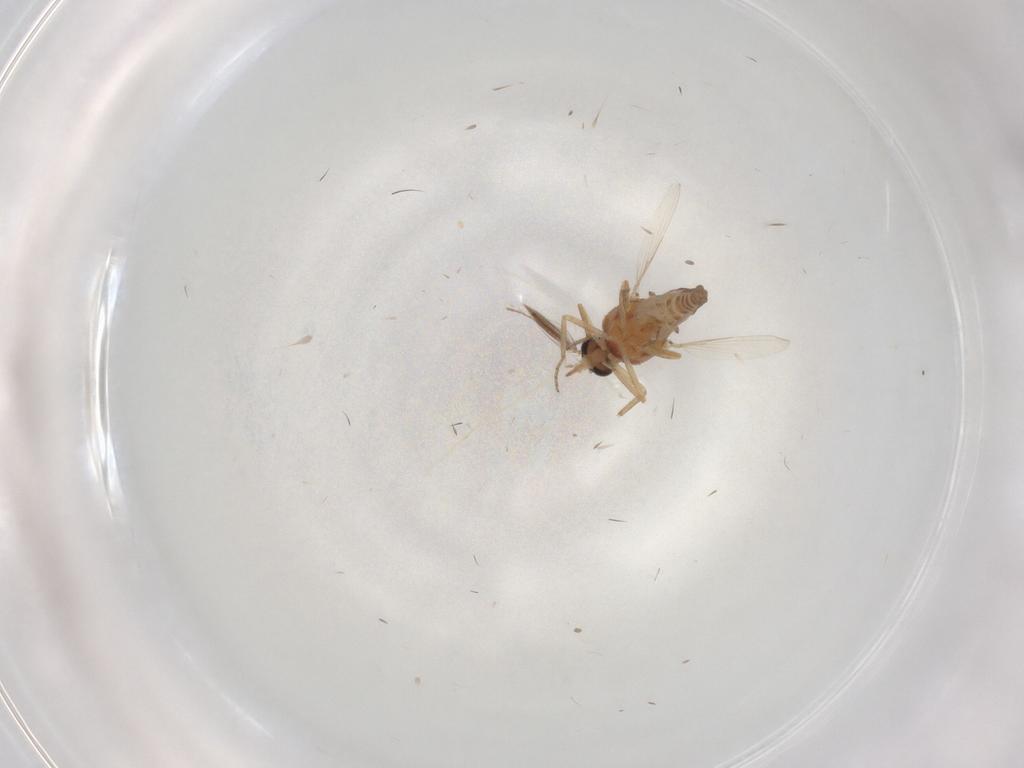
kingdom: Animalia
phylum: Arthropoda
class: Insecta
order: Diptera
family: Ceratopogonidae
